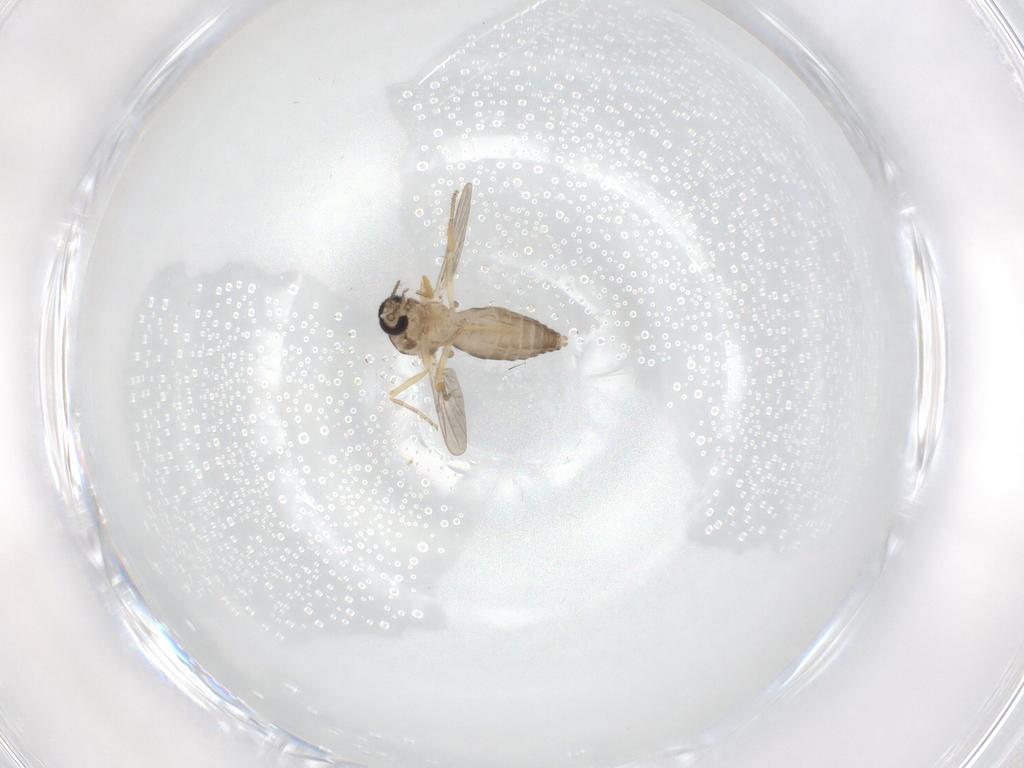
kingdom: Animalia
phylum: Arthropoda
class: Insecta
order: Diptera
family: Ceratopogonidae
